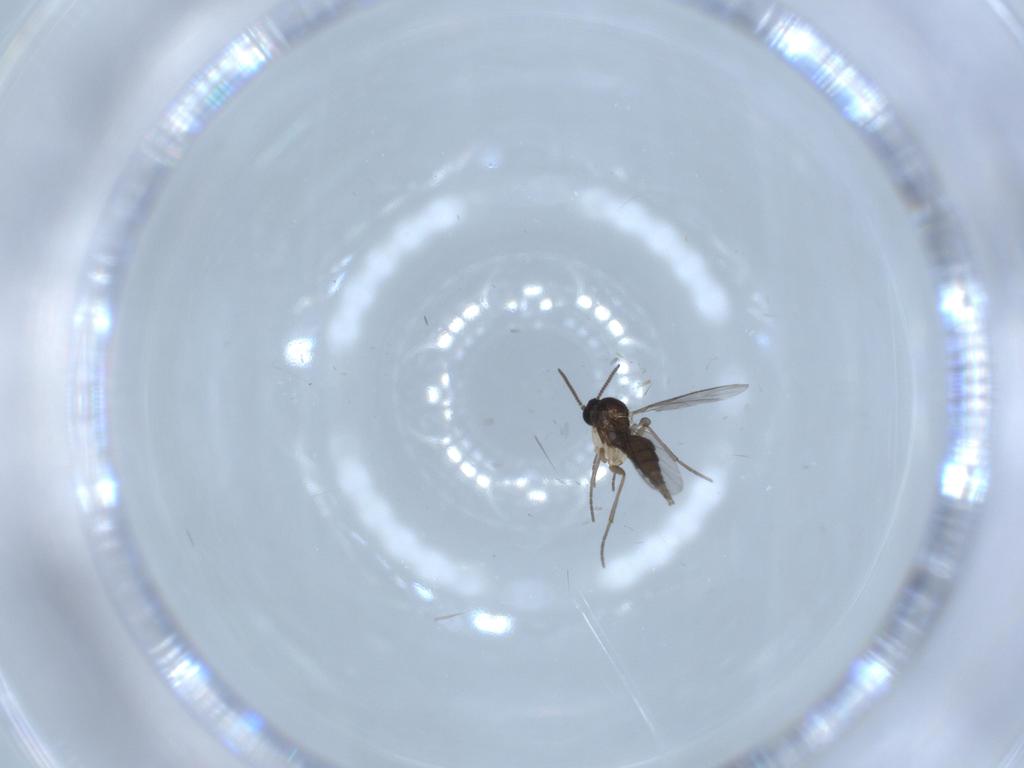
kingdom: Animalia
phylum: Arthropoda
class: Insecta
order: Diptera
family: Sciaridae
